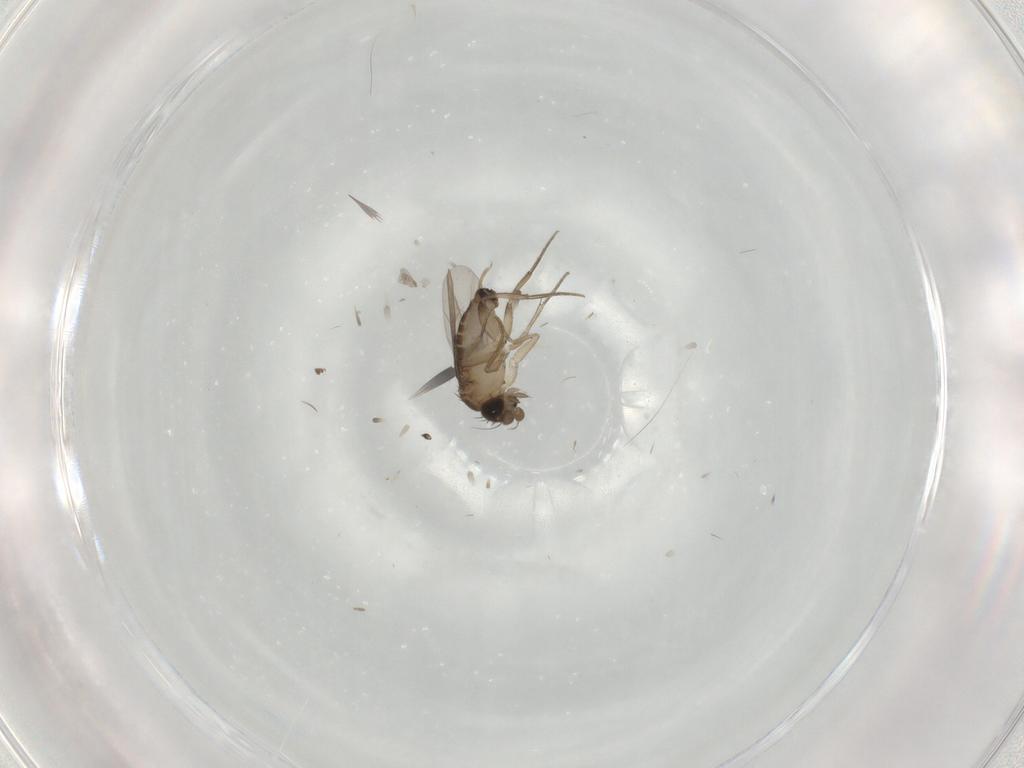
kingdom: Animalia
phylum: Arthropoda
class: Insecta
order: Diptera
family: Phoridae
